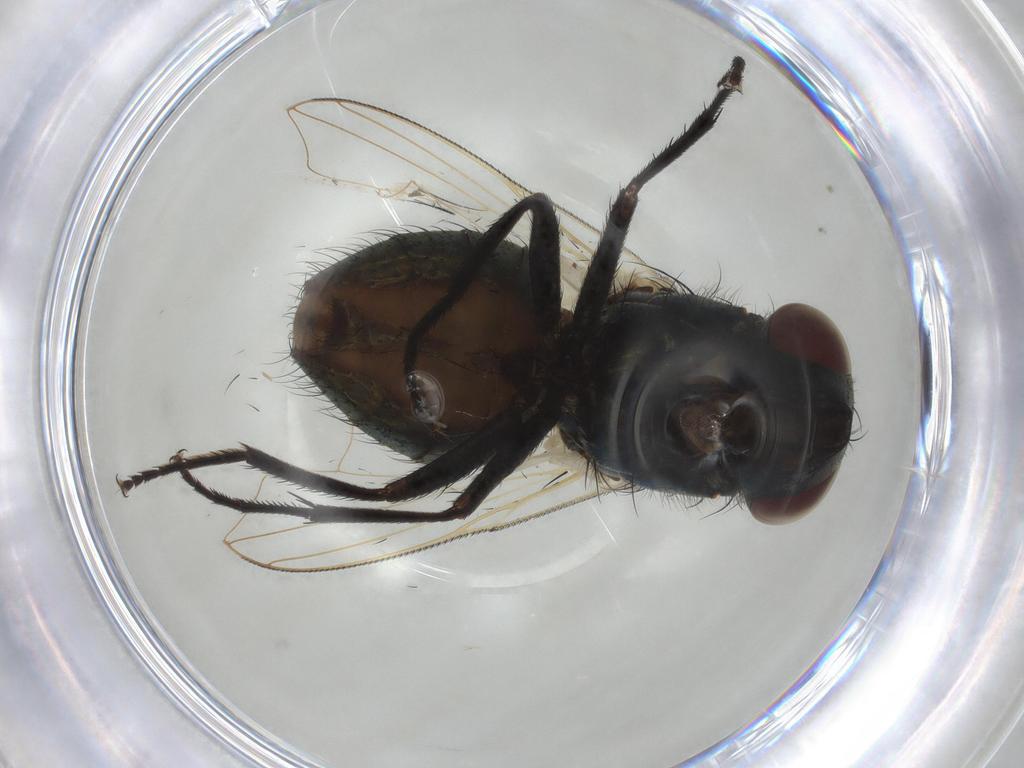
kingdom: Animalia
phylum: Arthropoda
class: Insecta
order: Diptera
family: Muscidae
